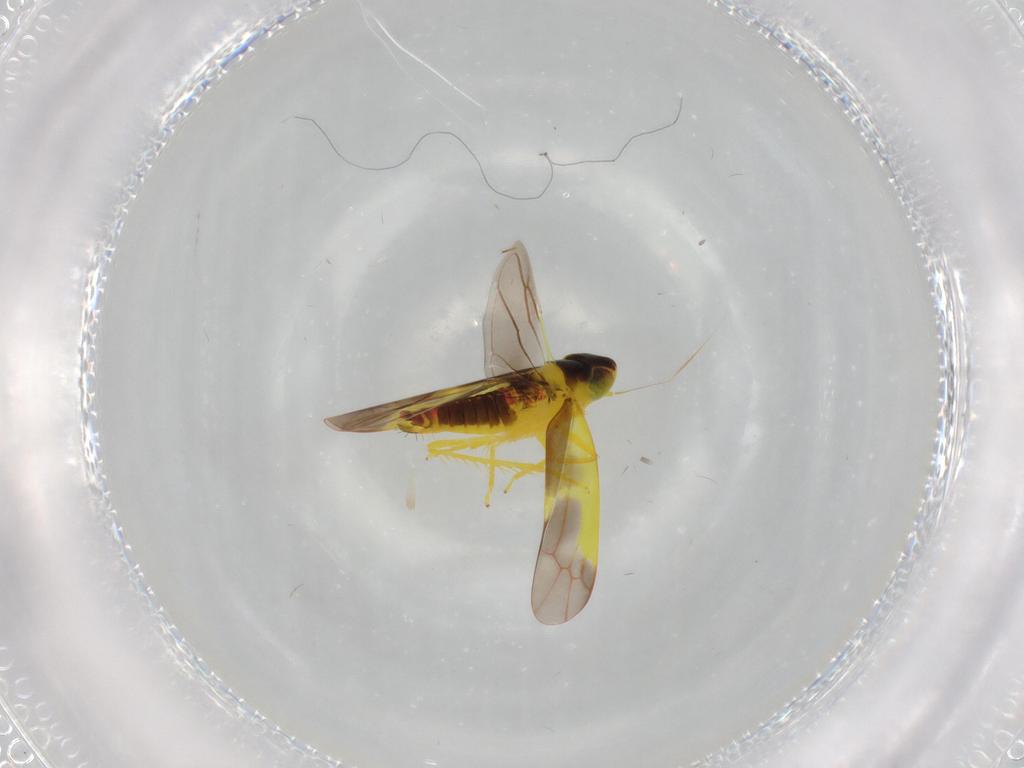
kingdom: Animalia
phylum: Arthropoda
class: Insecta
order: Hemiptera
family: Cicadellidae
